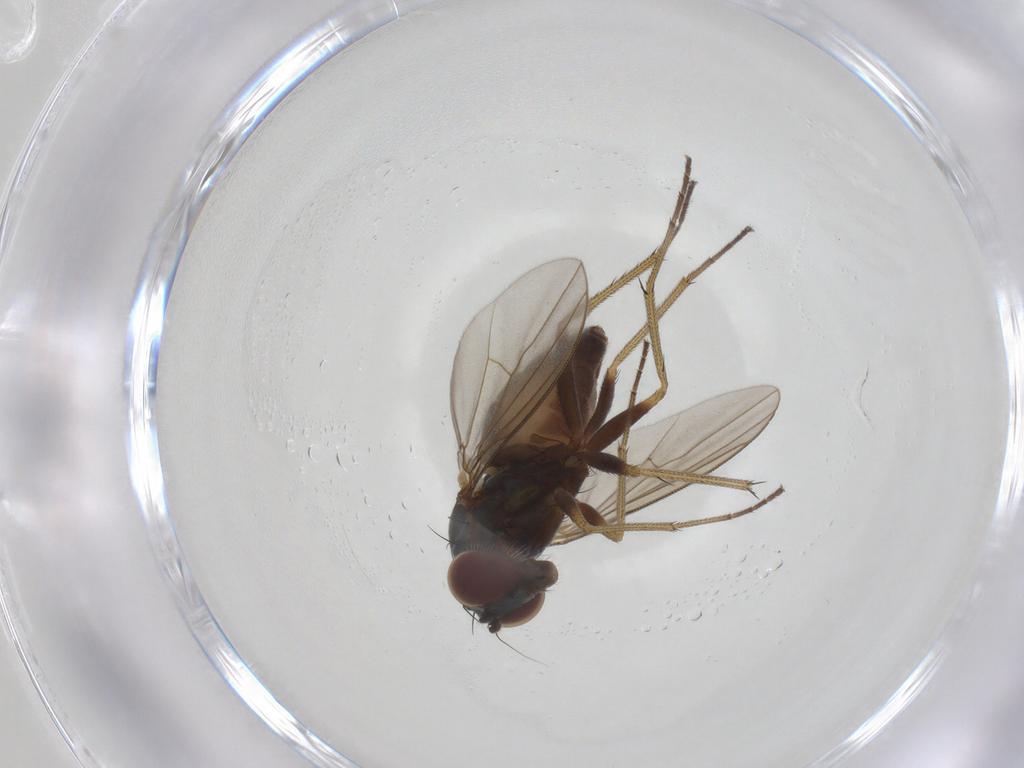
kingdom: Animalia
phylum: Arthropoda
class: Insecta
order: Diptera
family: Dolichopodidae
